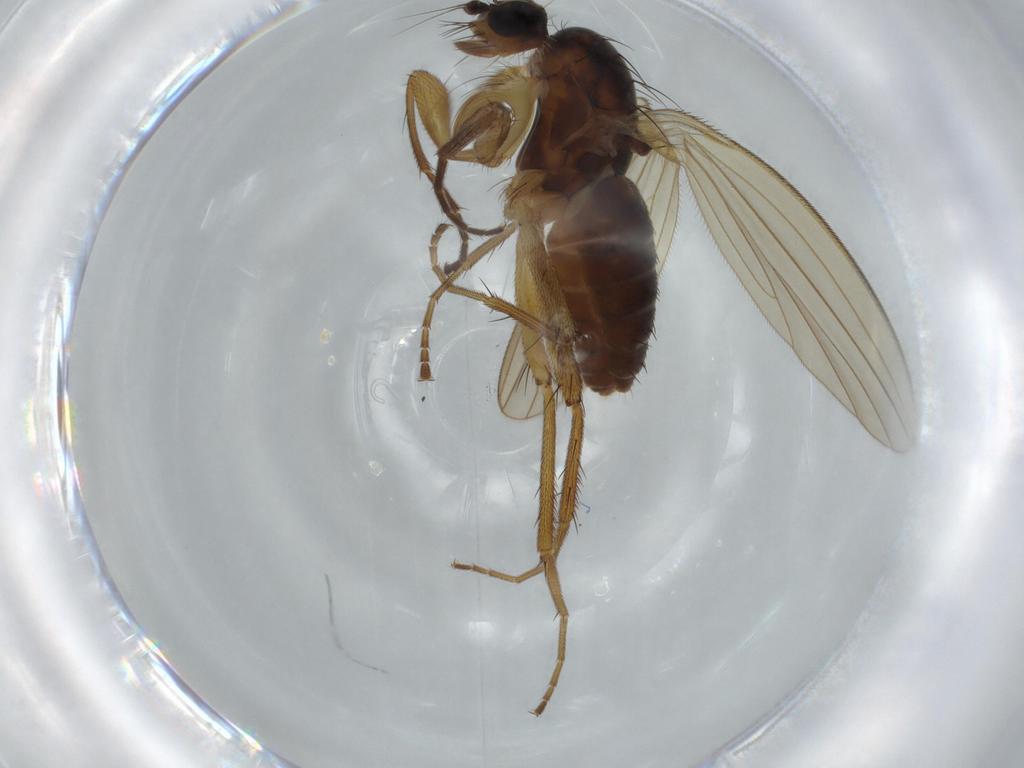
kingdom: Animalia
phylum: Arthropoda
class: Insecta
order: Diptera
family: Lonchopteridae
